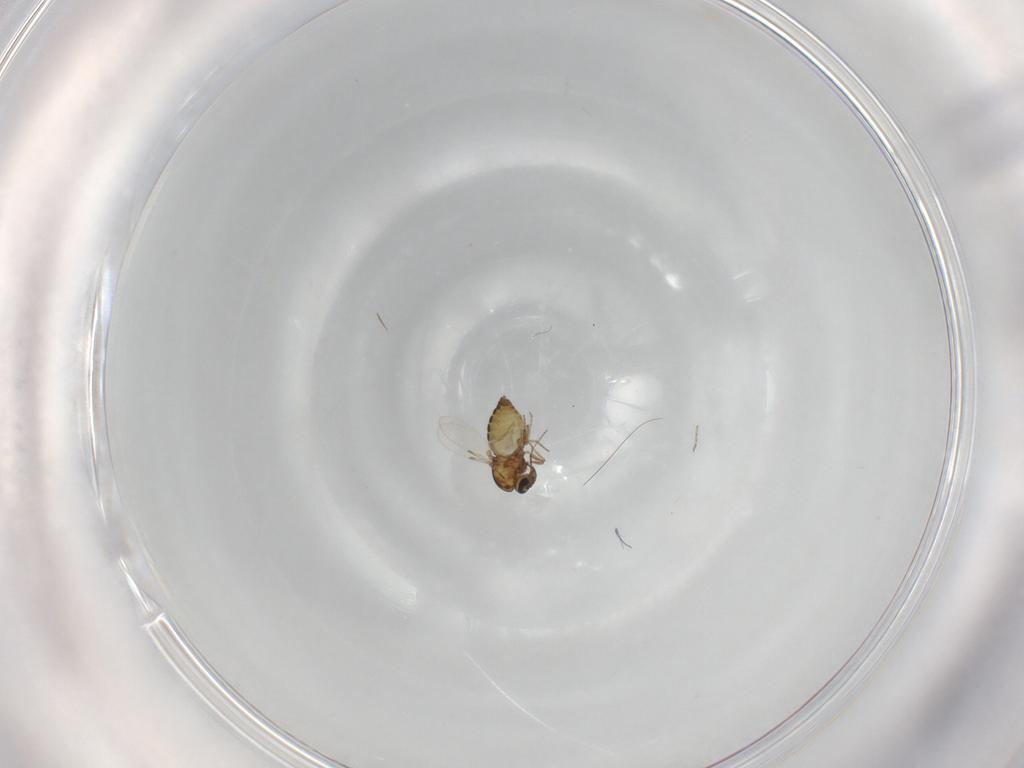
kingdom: Animalia
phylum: Arthropoda
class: Insecta
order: Diptera
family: Ceratopogonidae
